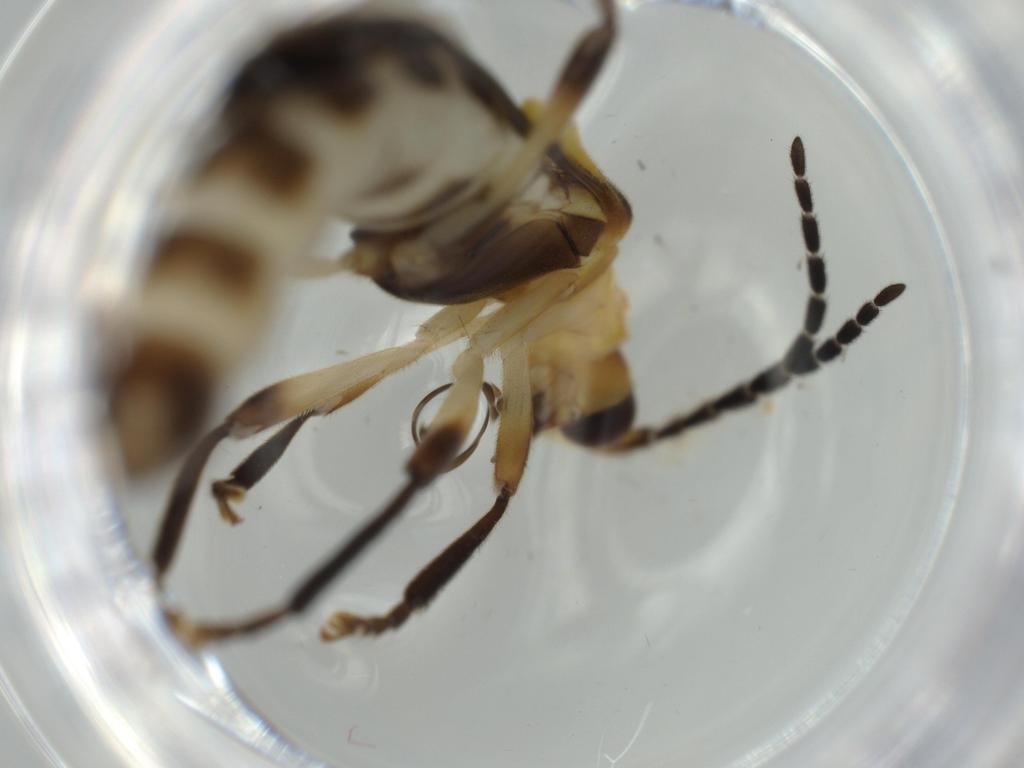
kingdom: Animalia
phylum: Arthropoda
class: Insecta
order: Coleoptera
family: Cantharidae
